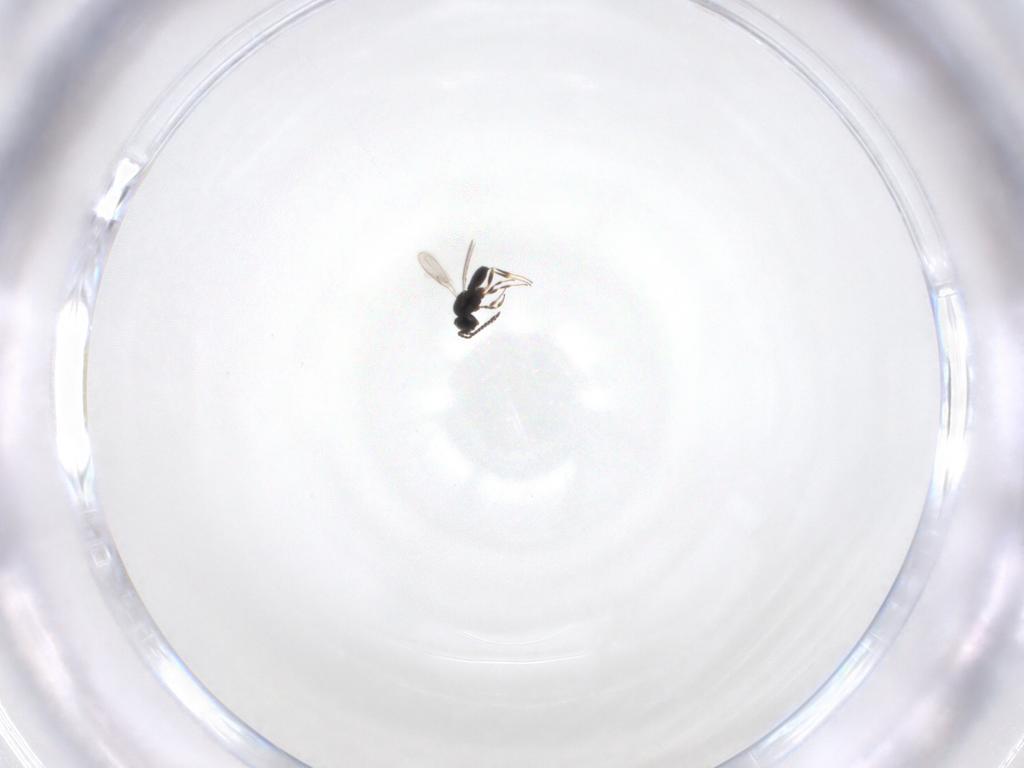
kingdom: Animalia
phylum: Arthropoda
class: Insecta
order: Hymenoptera
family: Scelionidae
